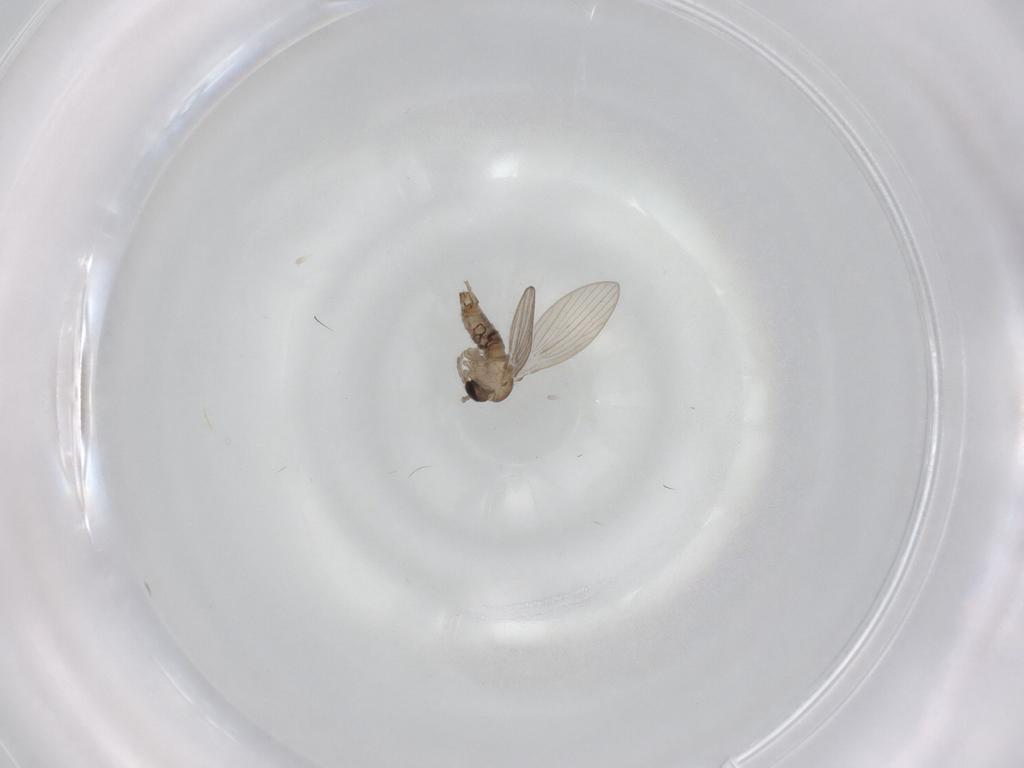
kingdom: Animalia
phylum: Arthropoda
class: Insecta
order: Diptera
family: Psychodidae
